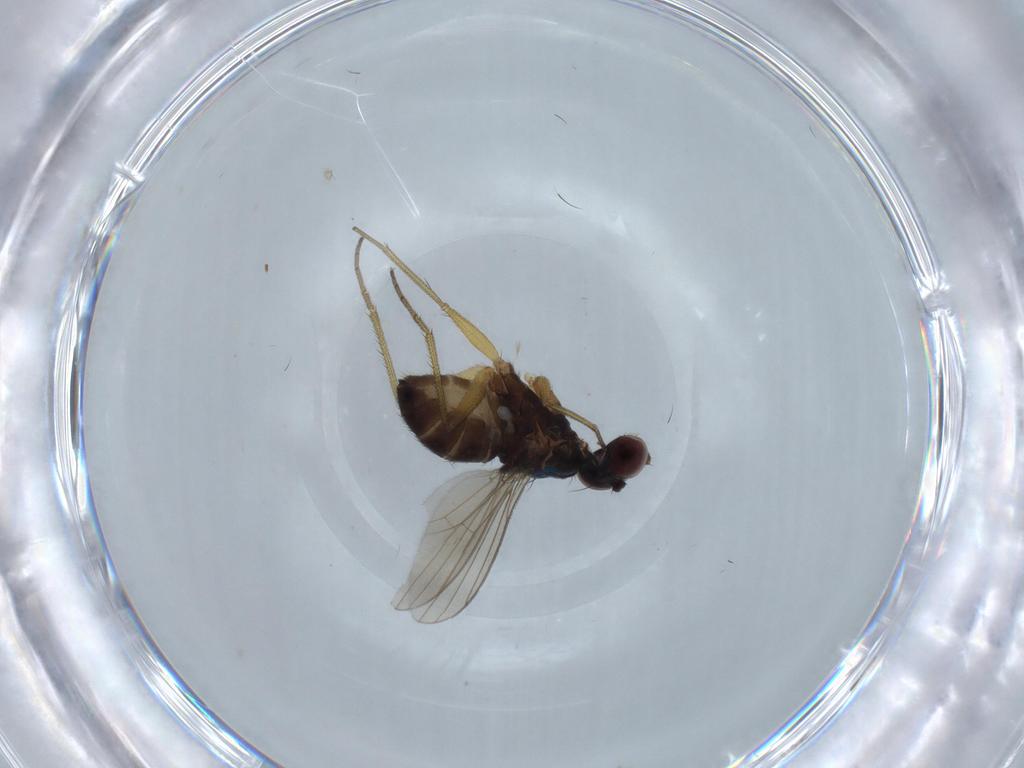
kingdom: Animalia
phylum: Arthropoda
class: Insecta
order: Diptera
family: Dolichopodidae
